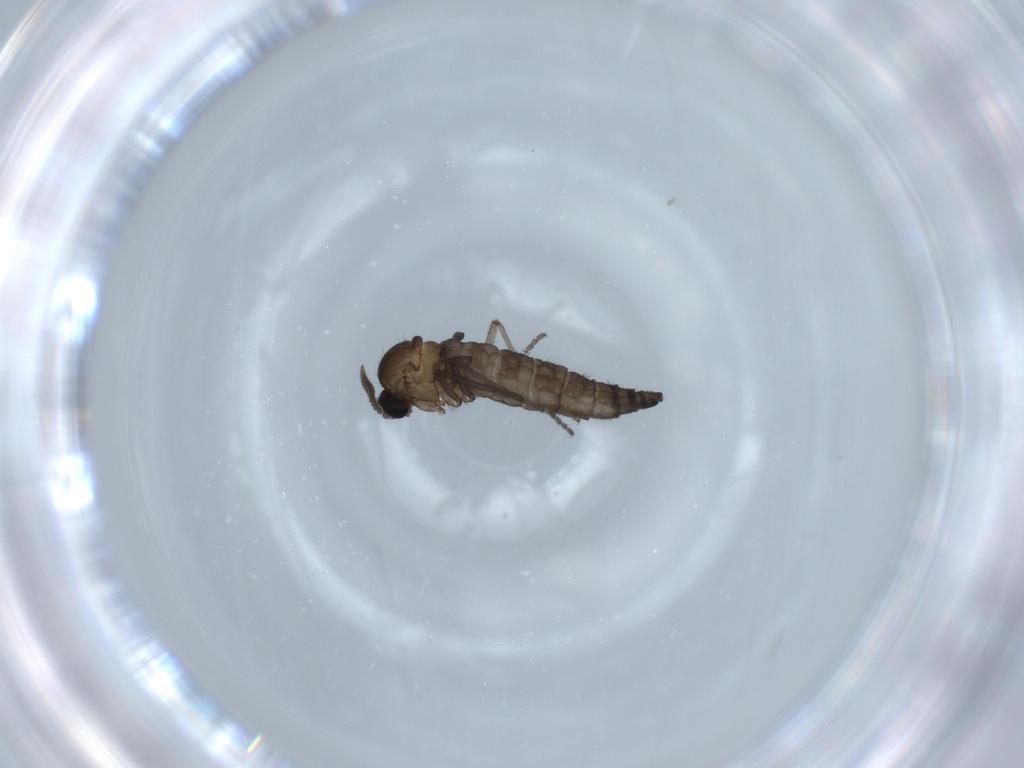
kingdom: Animalia
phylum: Arthropoda
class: Insecta
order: Diptera
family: Sciaridae
